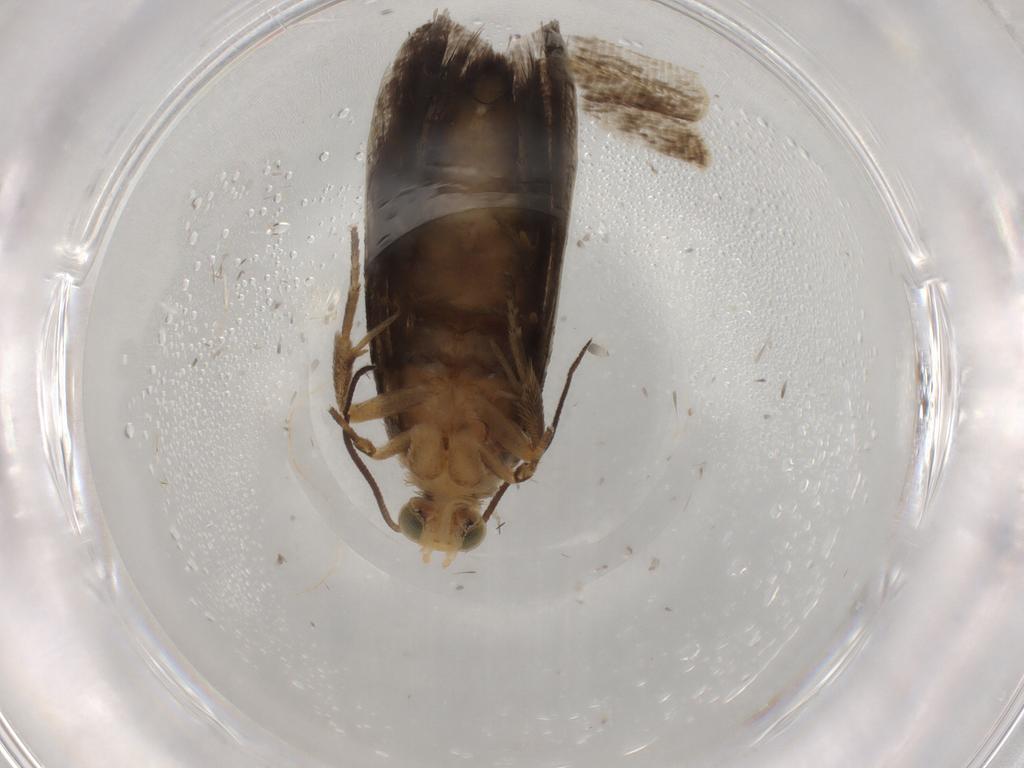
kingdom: Animalia
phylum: Arthropoda
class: Insecta
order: Lepidoptera
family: Tortricidae
